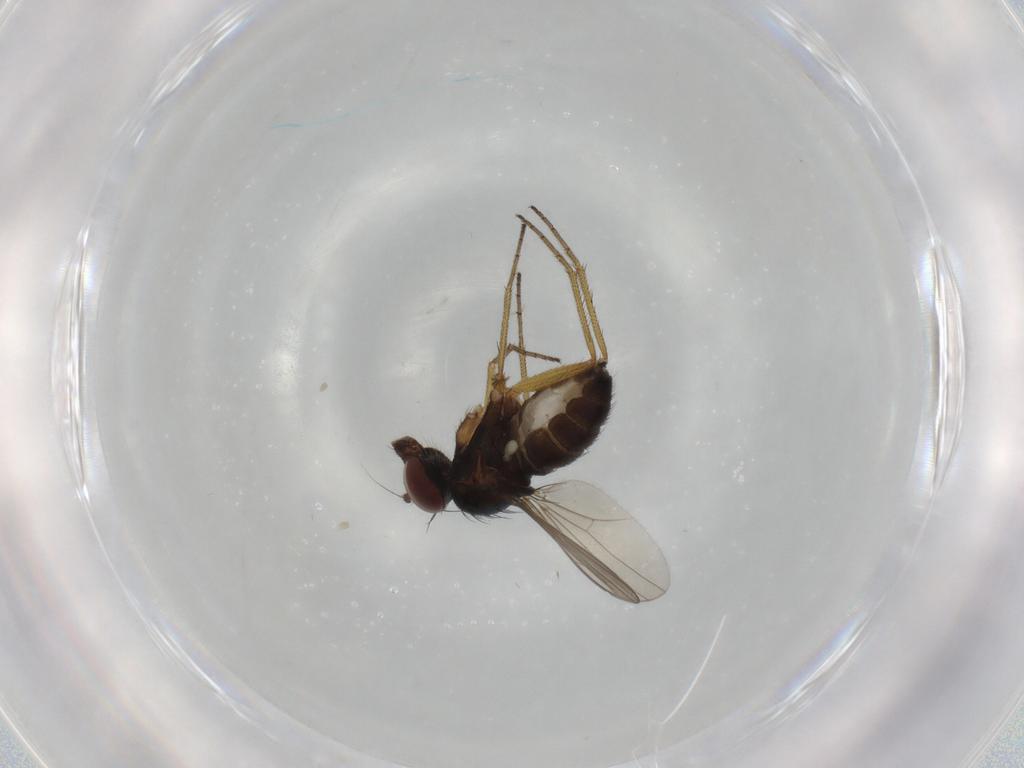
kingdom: Animalia
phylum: Arthropoda
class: Insecta
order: Diptera
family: Dolichopodidae
